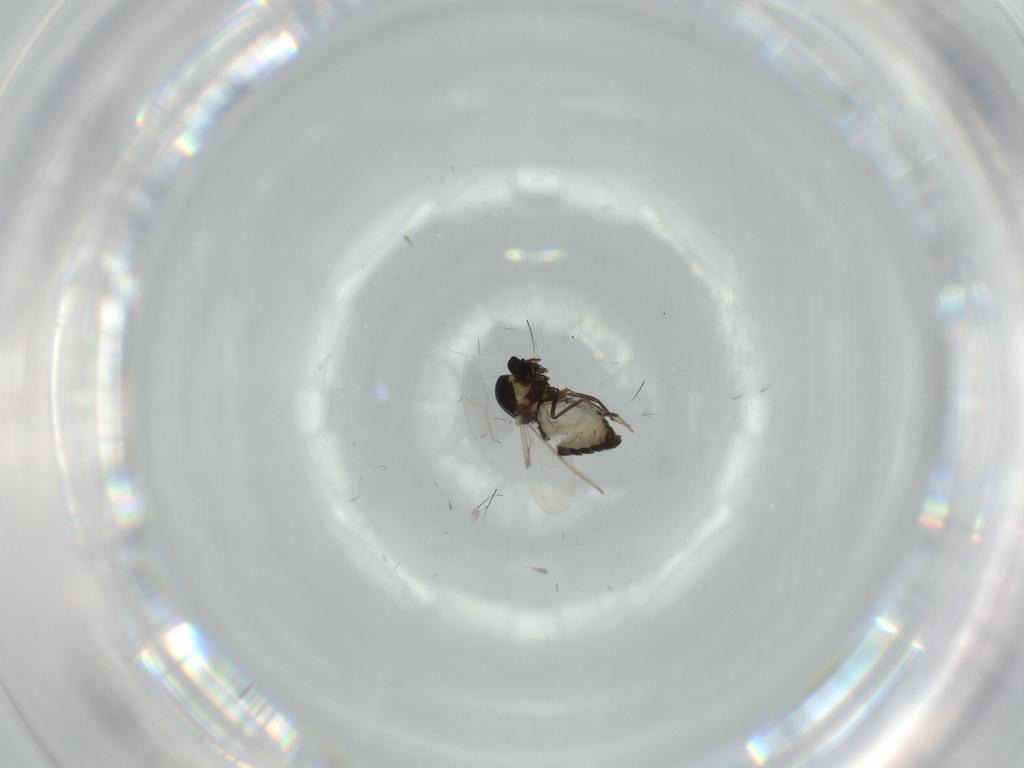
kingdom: Animalia
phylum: Arthropoda
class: Insecta
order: Diptera
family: Ceratopogonidae
